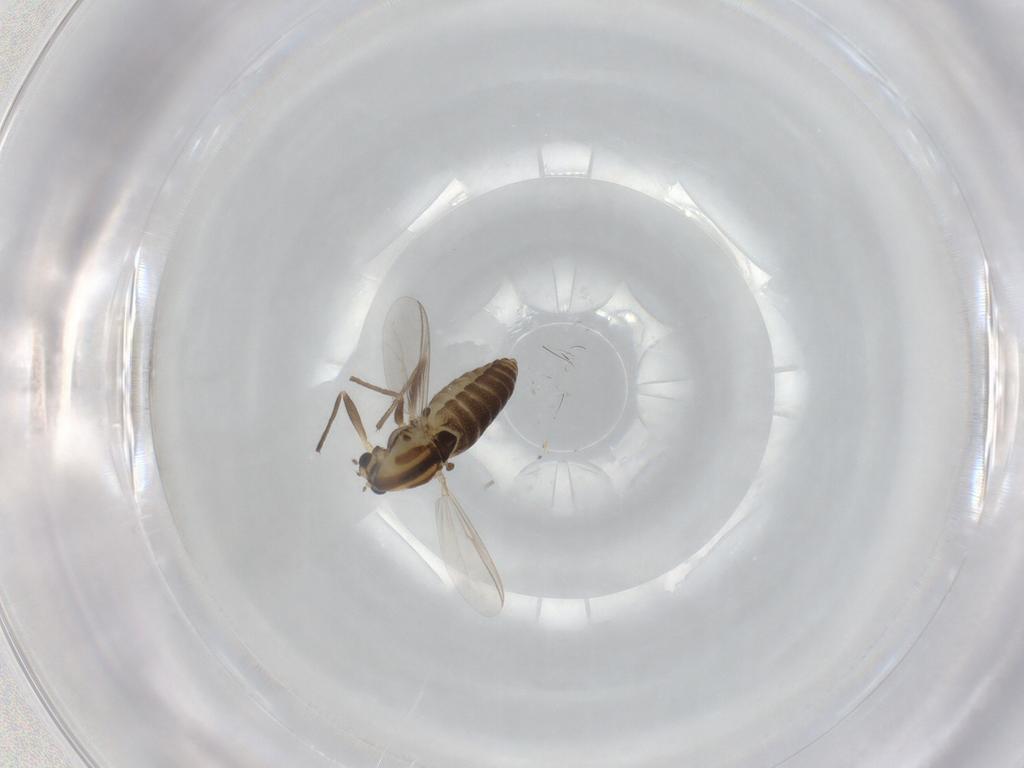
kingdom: Animalia
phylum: Arthropoda
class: Insecta
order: Diptera
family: Chironomidae
